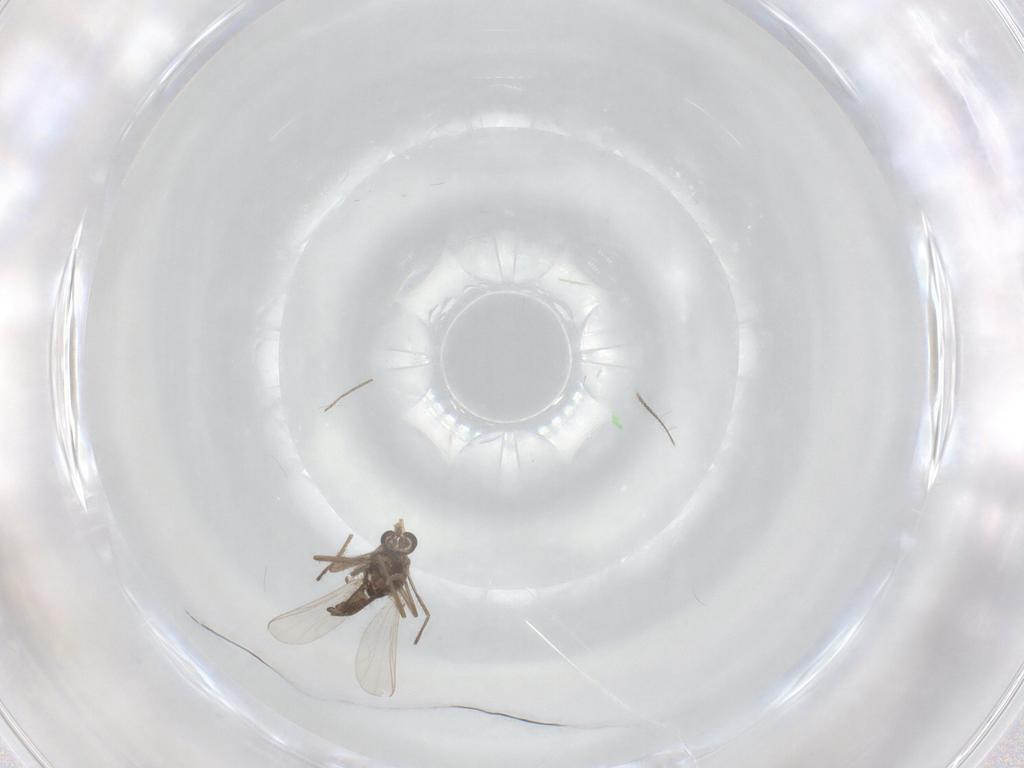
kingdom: Animalia
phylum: Arthropoda
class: Insecta
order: Diptera
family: Chironomidae
